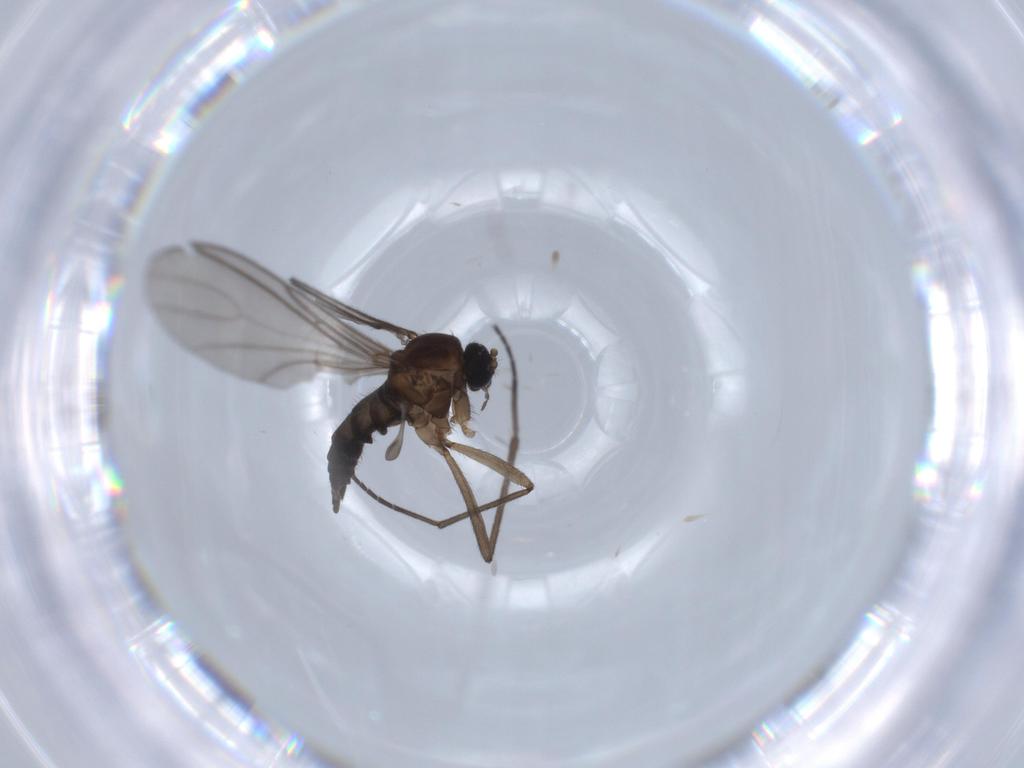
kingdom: Animalia
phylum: Arthropoda
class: Insecta
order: Diptera
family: Sciaridae
